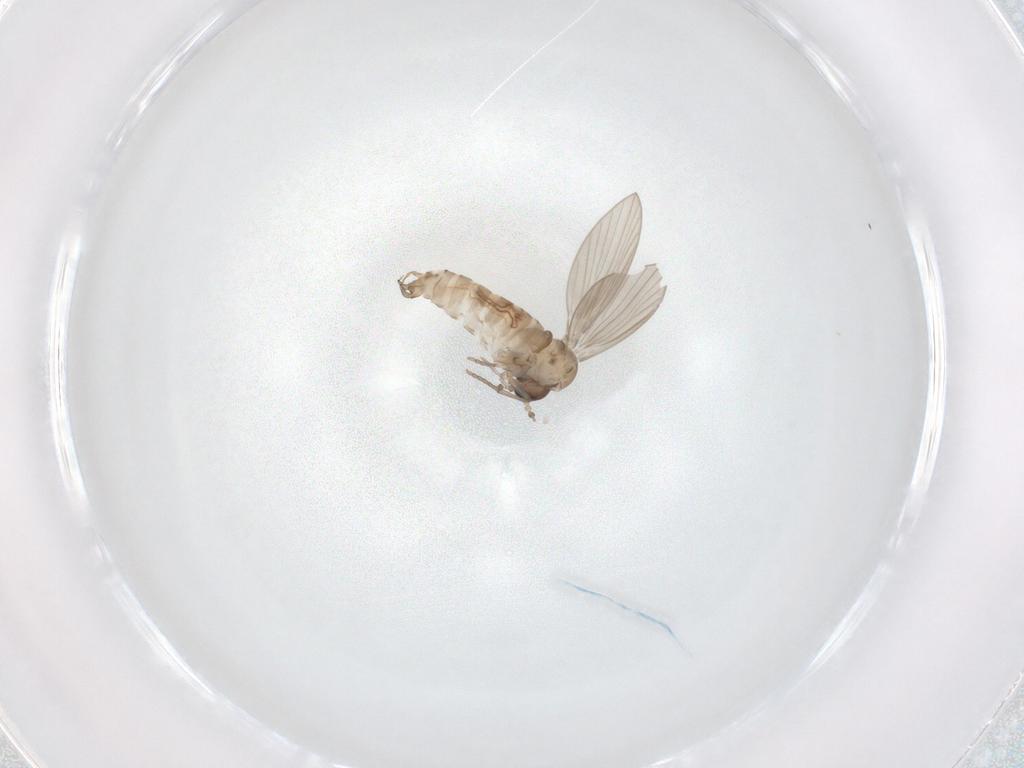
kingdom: Animalia
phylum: Arthropoda
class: Insecta
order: Diptera
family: Psychodidae
